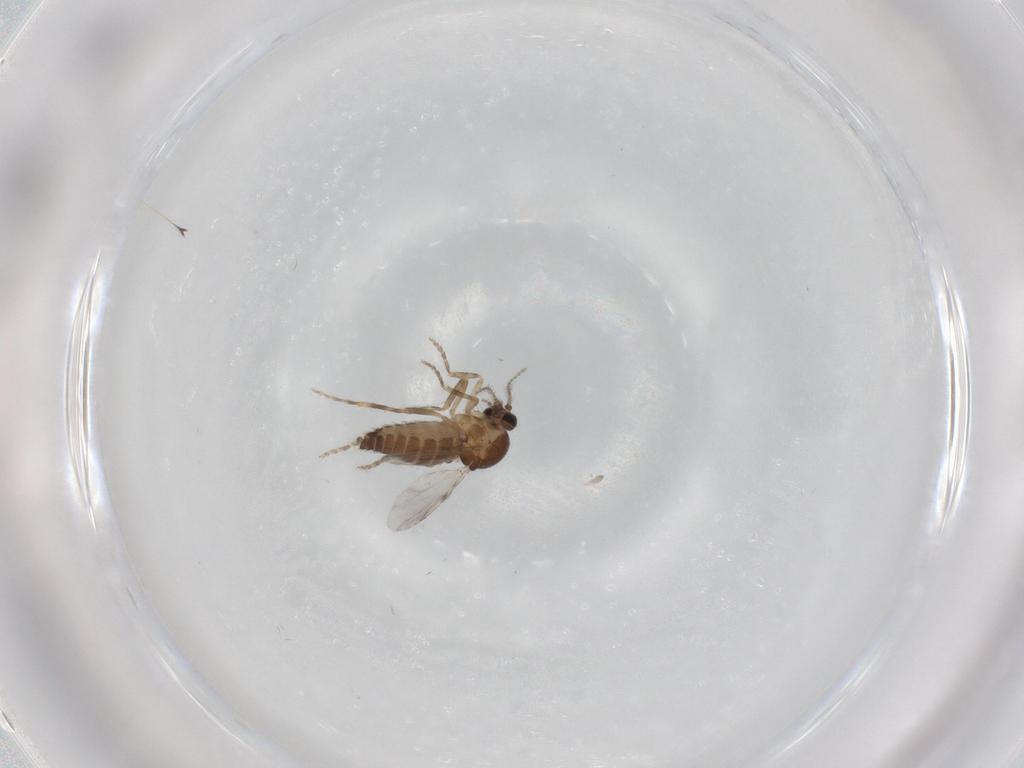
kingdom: Animalia
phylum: Arthropoda
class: Insecta
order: Diptera
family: Ceratopogonidae
